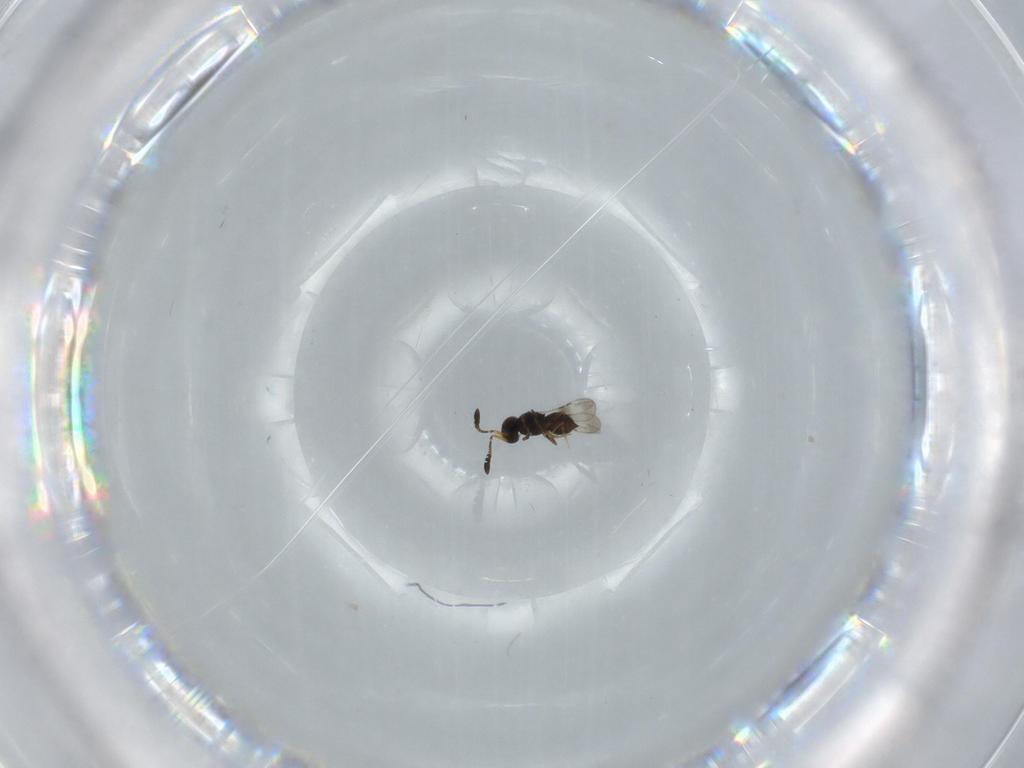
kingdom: Animalia
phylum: Arthropoda
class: Insecta
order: Hymenoptera
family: Ceraphronidae
